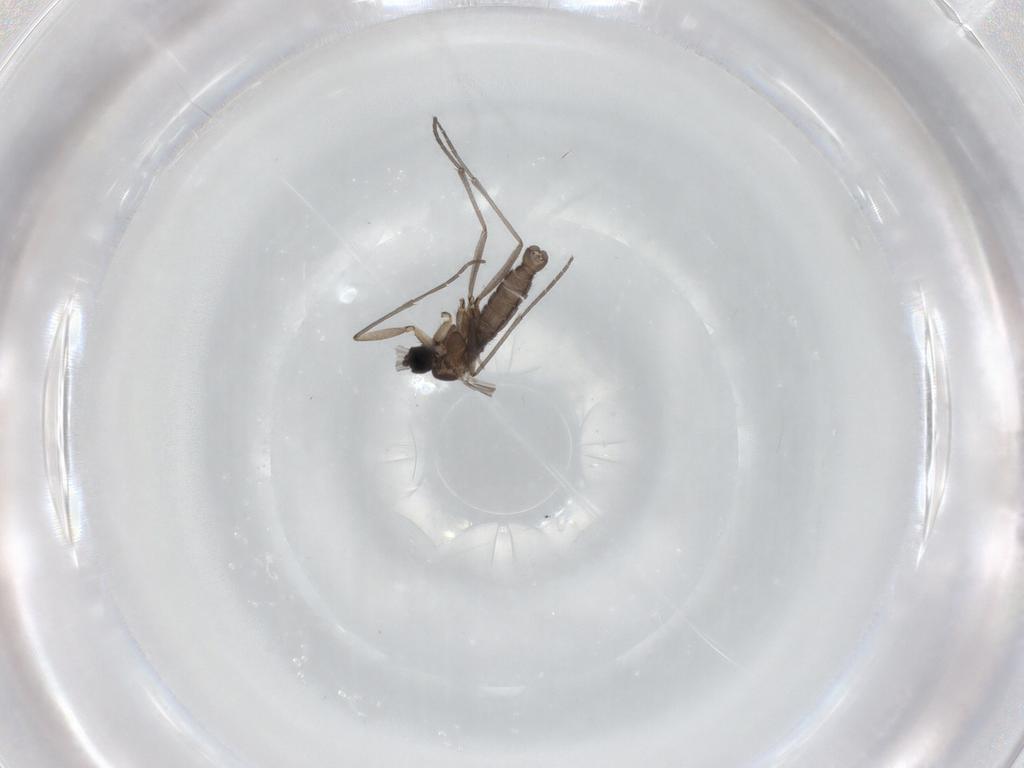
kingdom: Animalia
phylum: Arthropoda
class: Insecta
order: Diptera
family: Sciaridae
